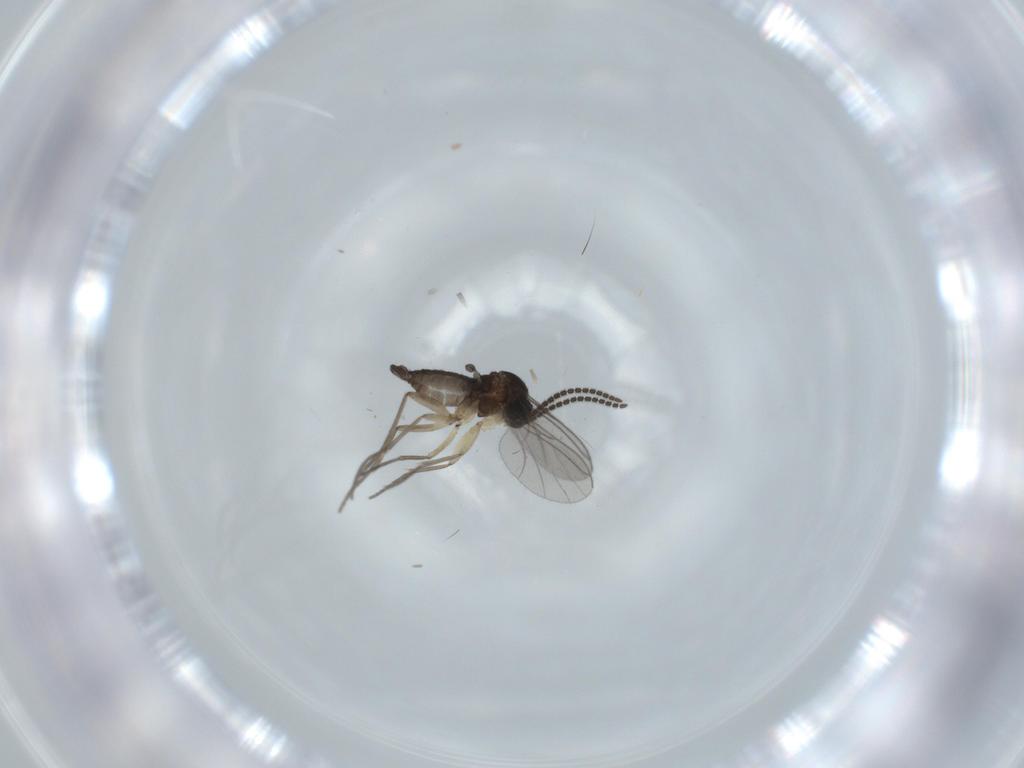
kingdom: Animalia
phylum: Arthropoda
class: Insecta
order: Diptera
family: Sciaridae
